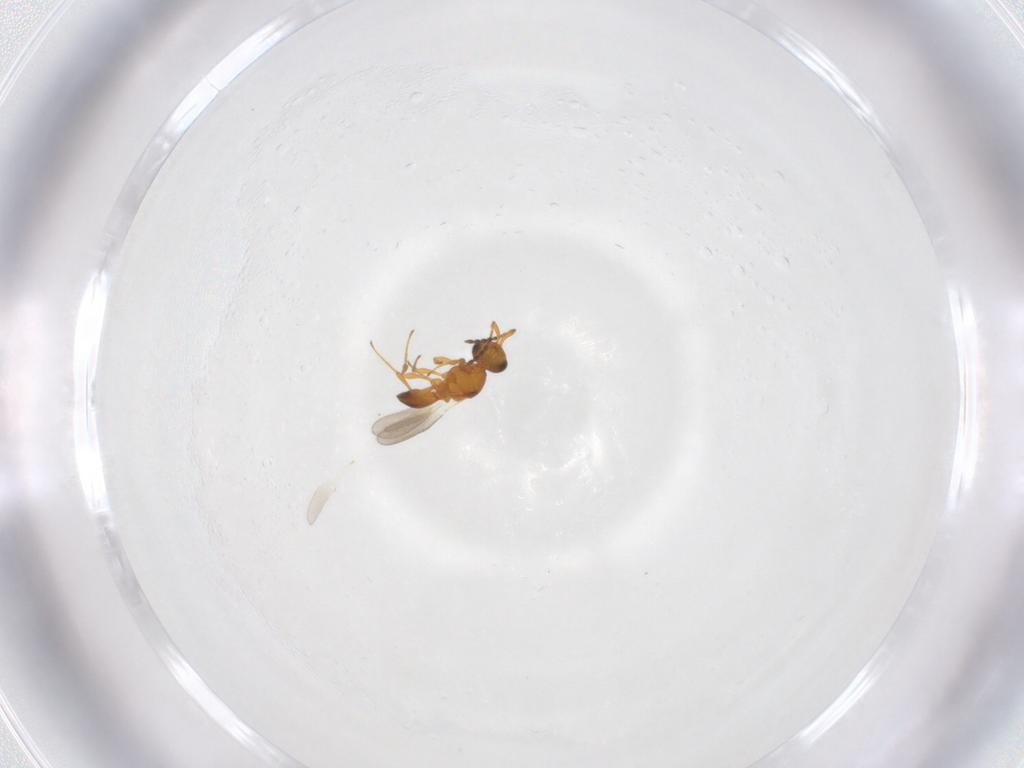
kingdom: Animalia
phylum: Arthropoda
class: Insecta
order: Hymenoptera
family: Platygastridae
